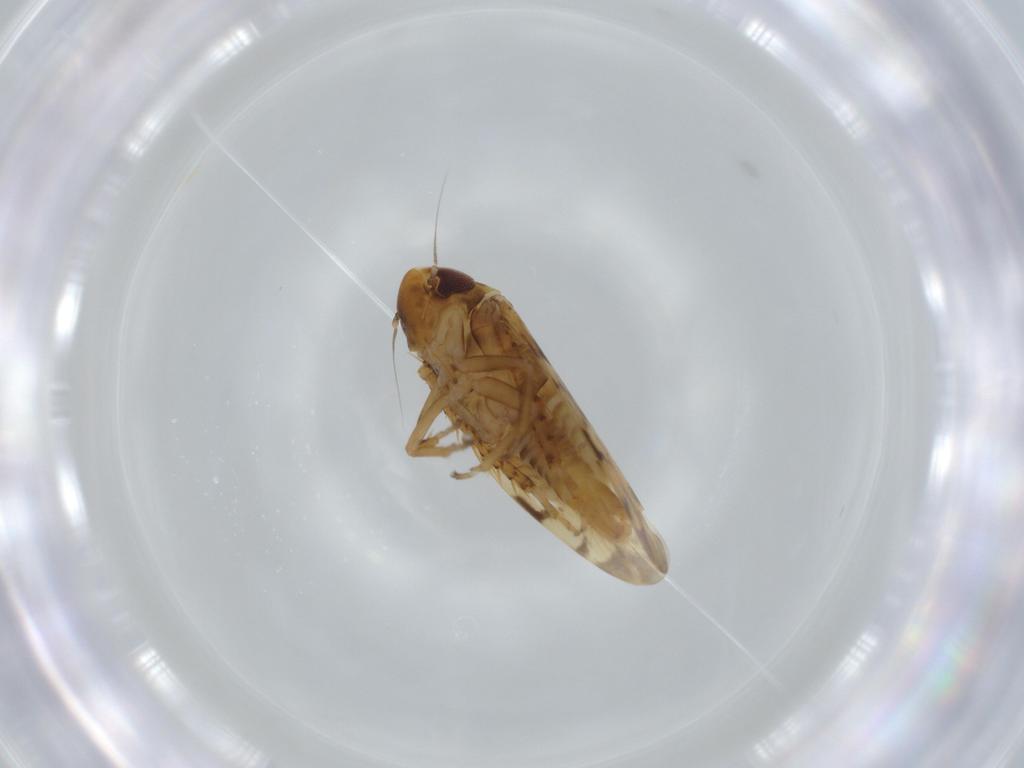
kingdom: Animalia
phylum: Arthropoda
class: Insecta
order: Hemiptera
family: Cicadellidae
